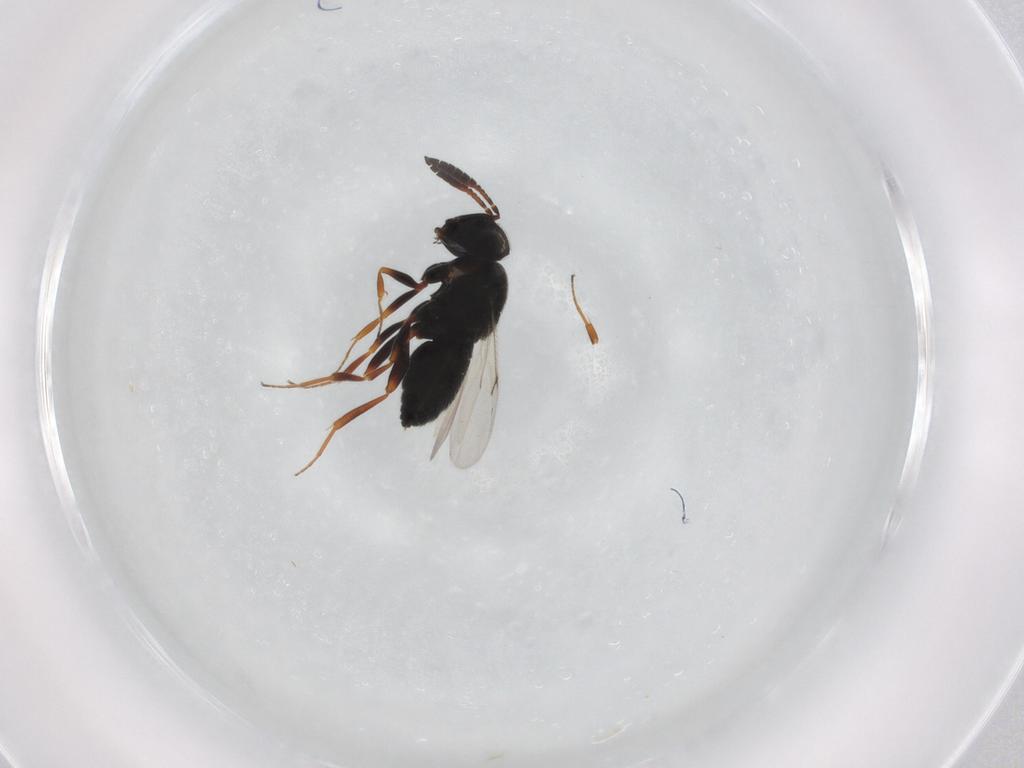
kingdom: Animalia
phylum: Arthropoda
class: Insecta
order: Hymenoptera
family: Scelionidae
